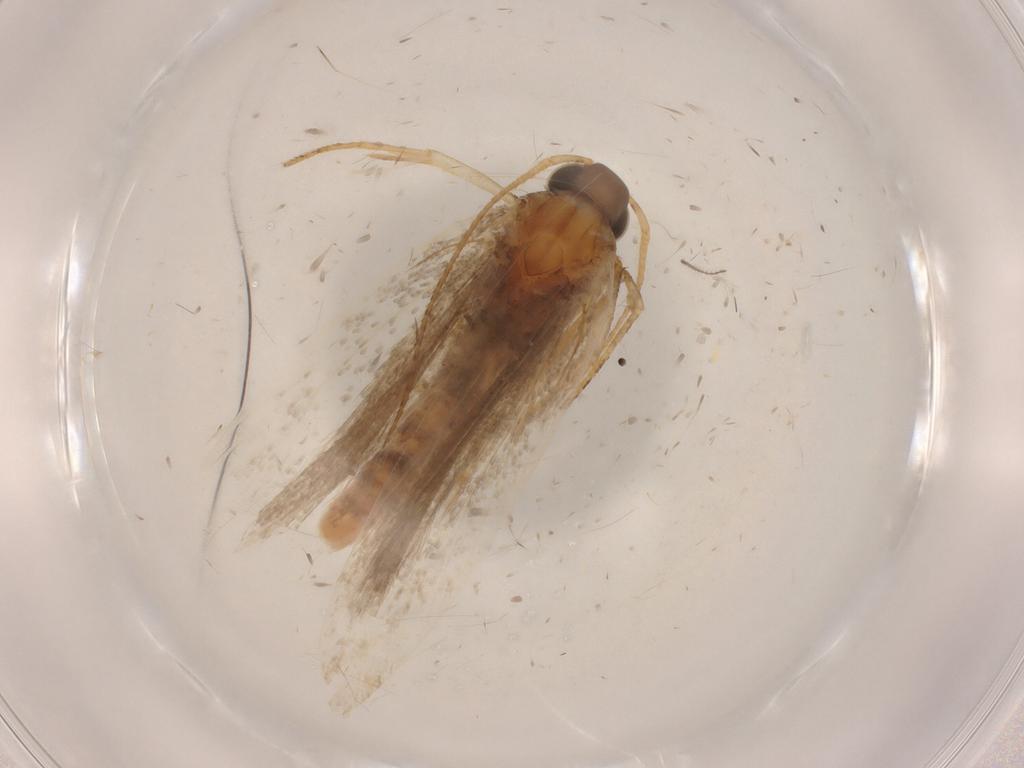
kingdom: Animalia
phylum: Arthropoda
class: Insecta
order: Lepidoptera
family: Gelechiidae
